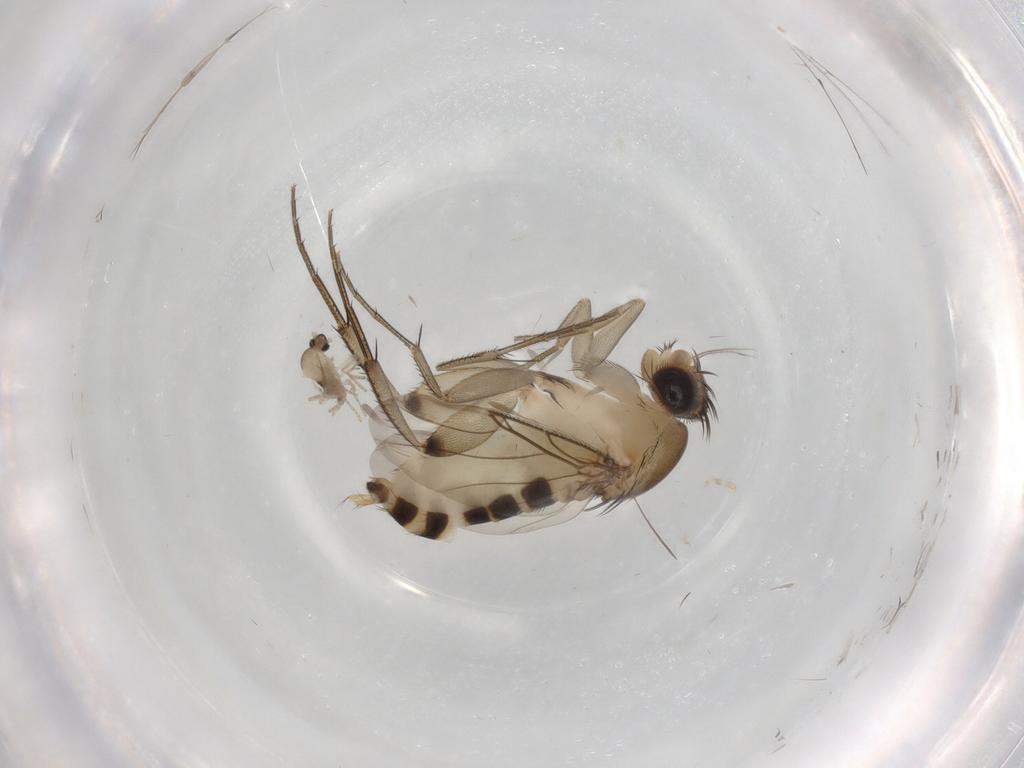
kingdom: Animalia
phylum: Arthropoda
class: Insecta
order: Diptera
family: Phoridae
